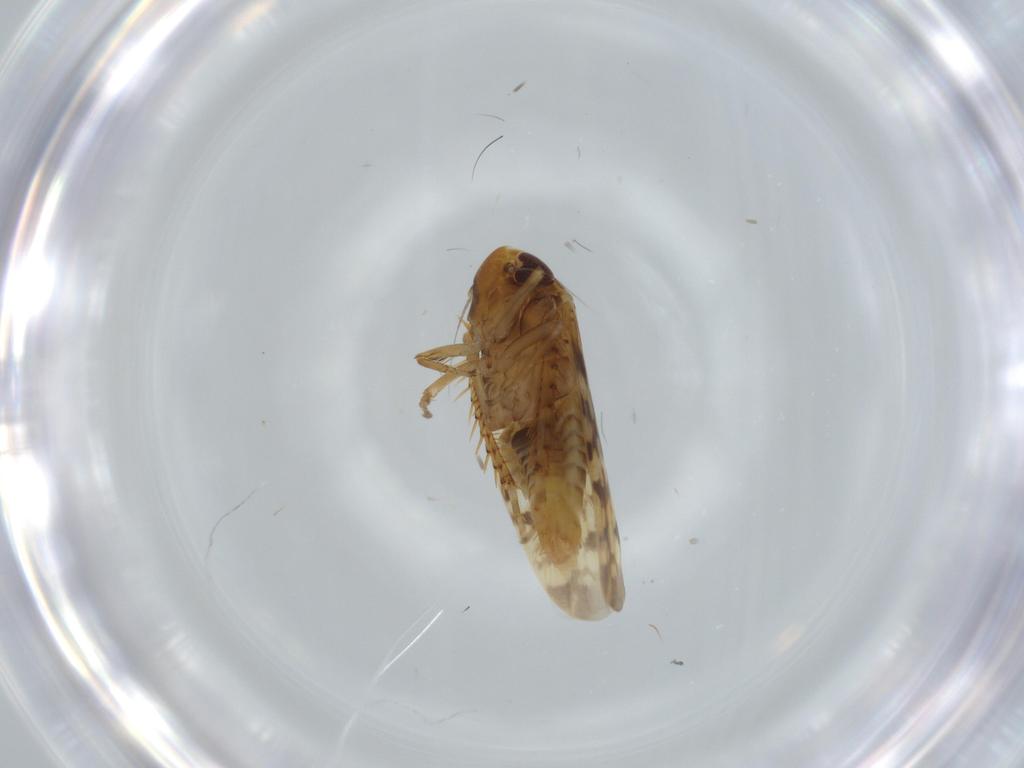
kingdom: Animalia
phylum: Arthropoda
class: Insecta
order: Hemiptera
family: Cicadellidae
